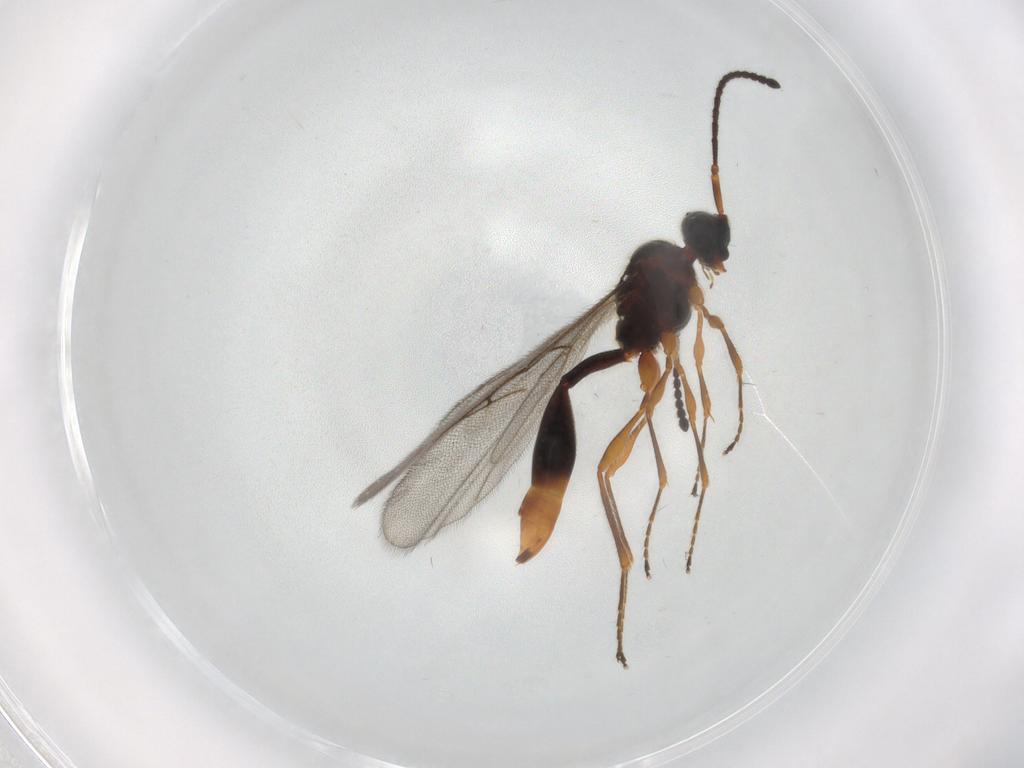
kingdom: Animalia
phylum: Arthropoda
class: Insecta
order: Hymenoptera
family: Diapriidae
